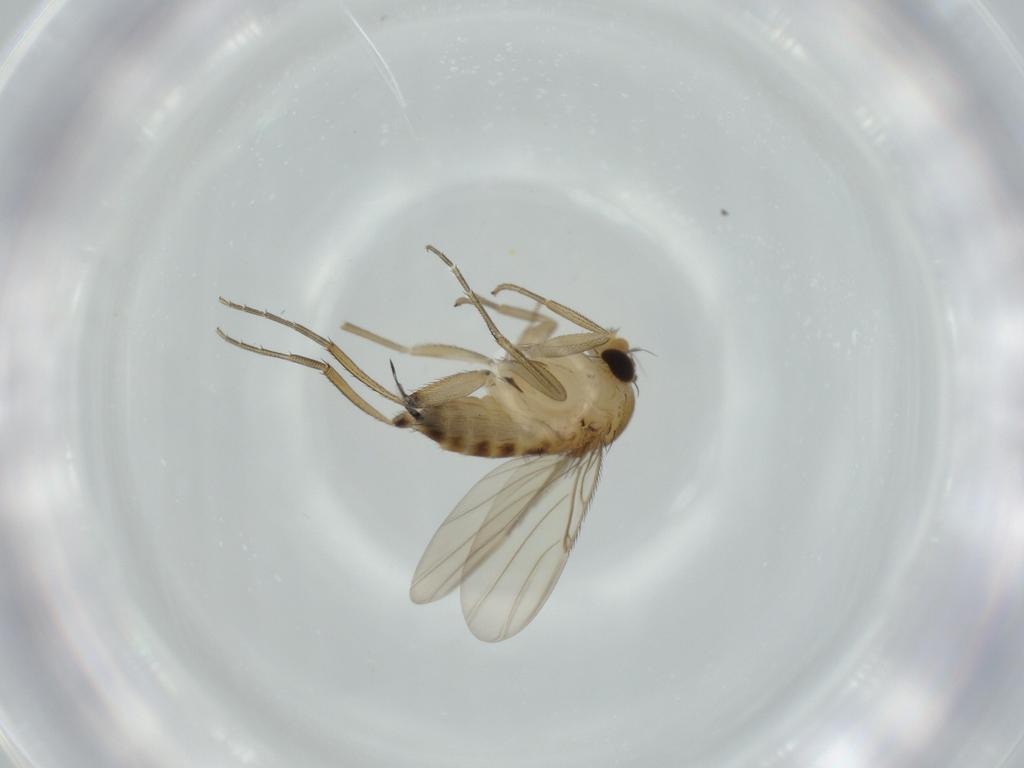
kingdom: Animalia
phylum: Arthropoda
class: Insecta
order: Diptera
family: Phoridae
